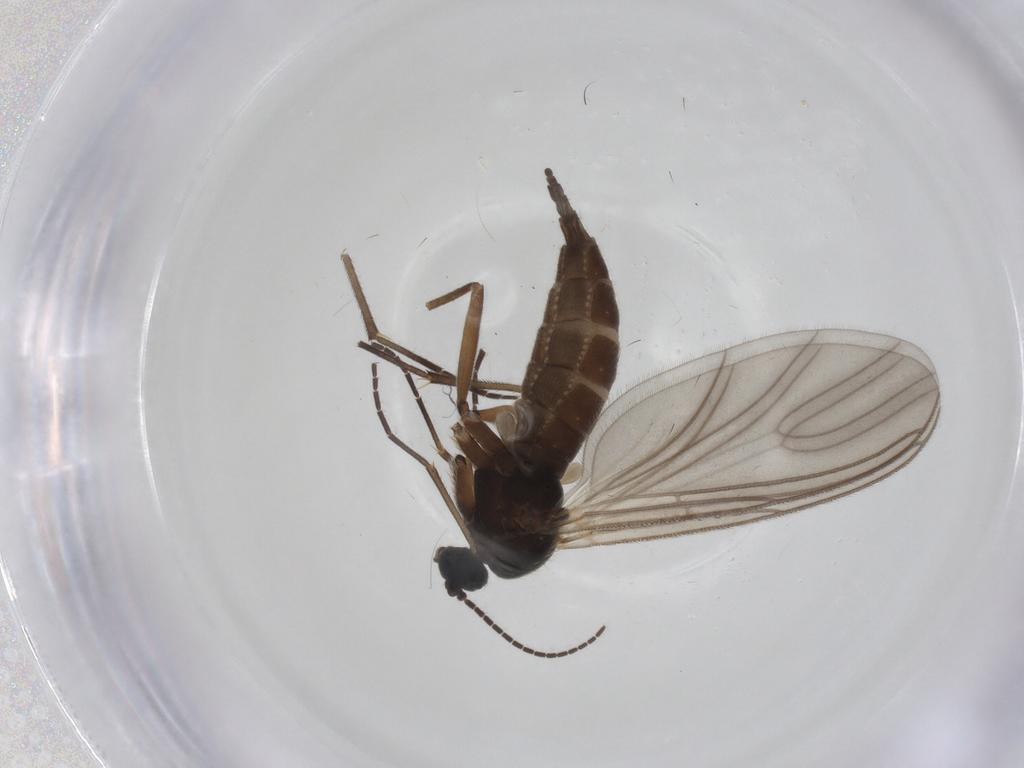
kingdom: Animalia
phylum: Arthropoda
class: Insecta
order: Diptera
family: Sciaridae
